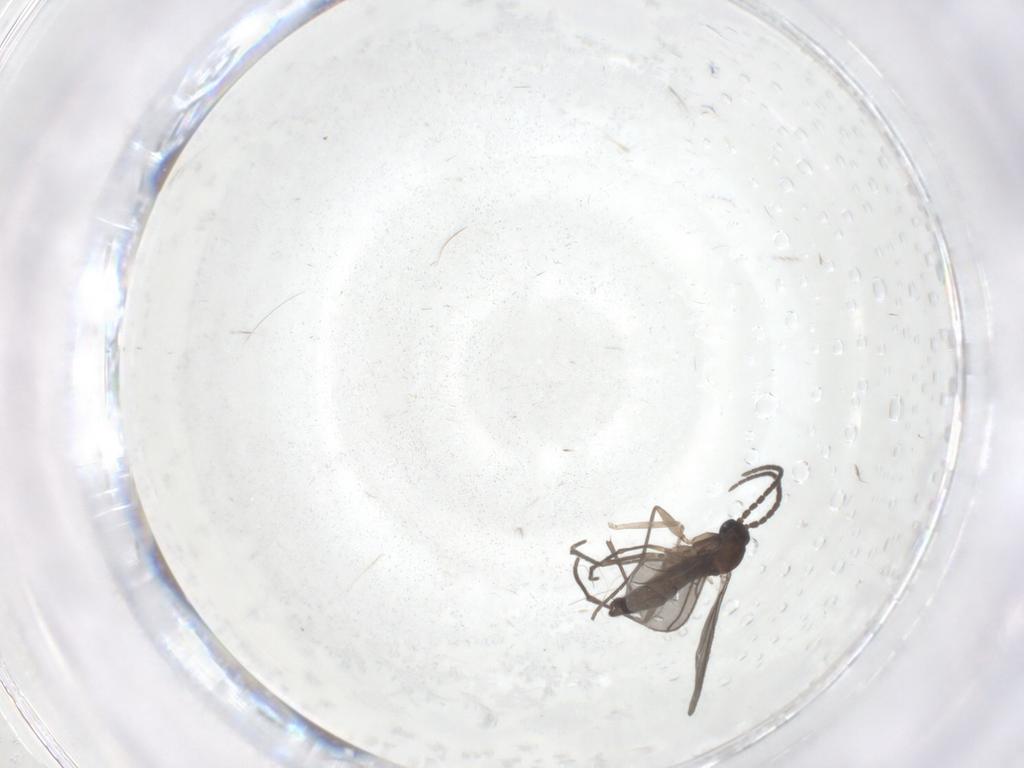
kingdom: Animalia
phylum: Arthropoda
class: Insecta
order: Diptera
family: Sciaridae
